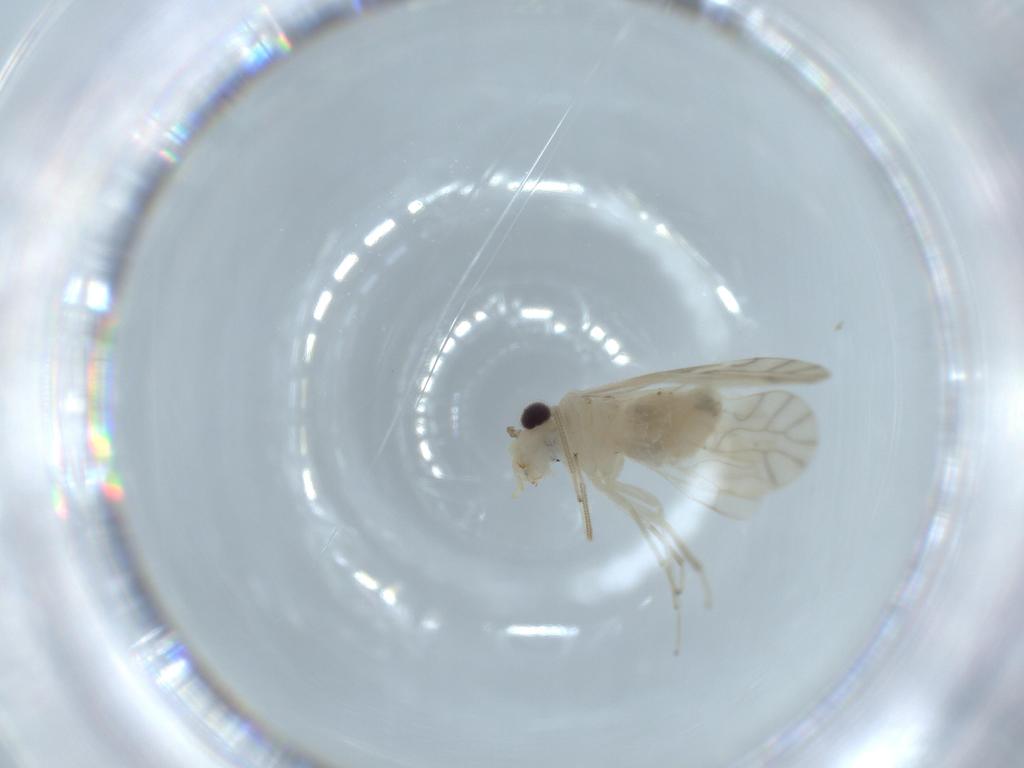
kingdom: Animalia
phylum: Arthropoda
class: Insecta
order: Psocodea
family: Caeciliusidae
